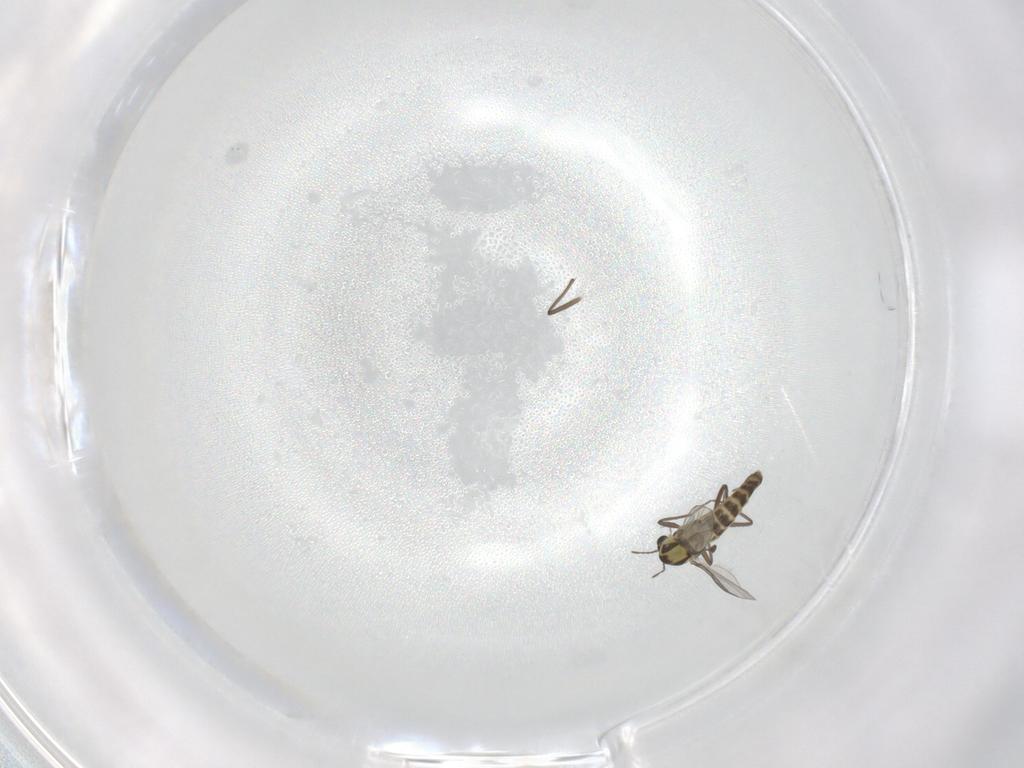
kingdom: Animalia
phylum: Arthropoda
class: Insecta
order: Diptera
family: Chironomidae
